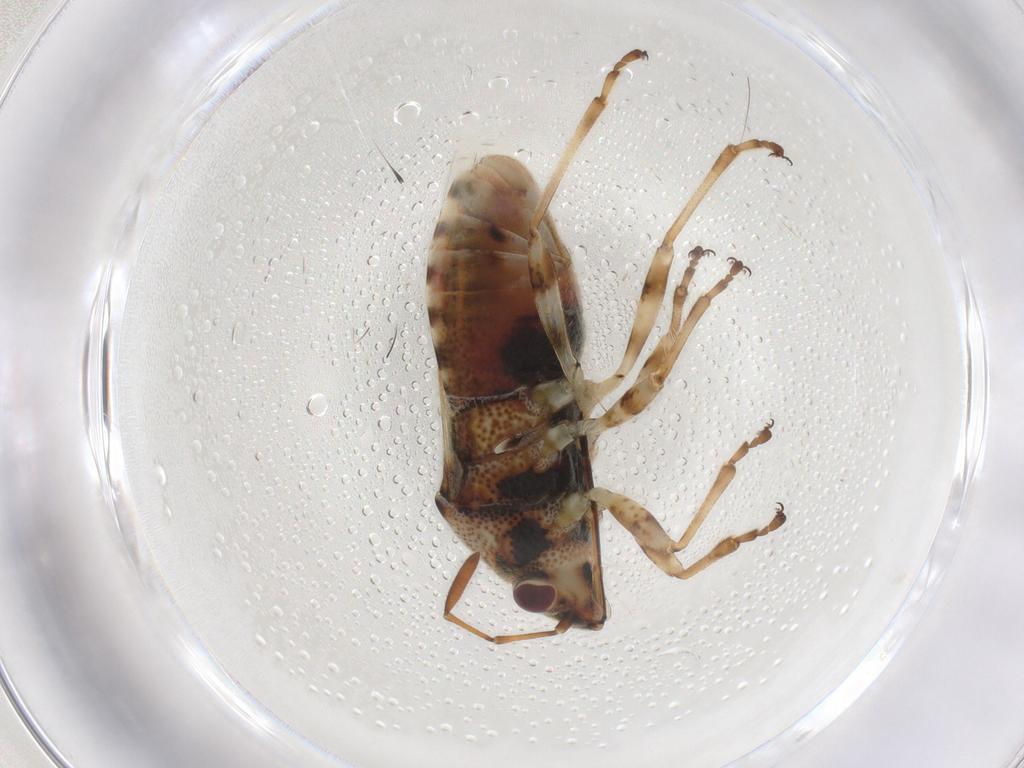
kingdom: Animalia
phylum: Arthropoda
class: Insecta
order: Hemiptera
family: Lygaeidae
